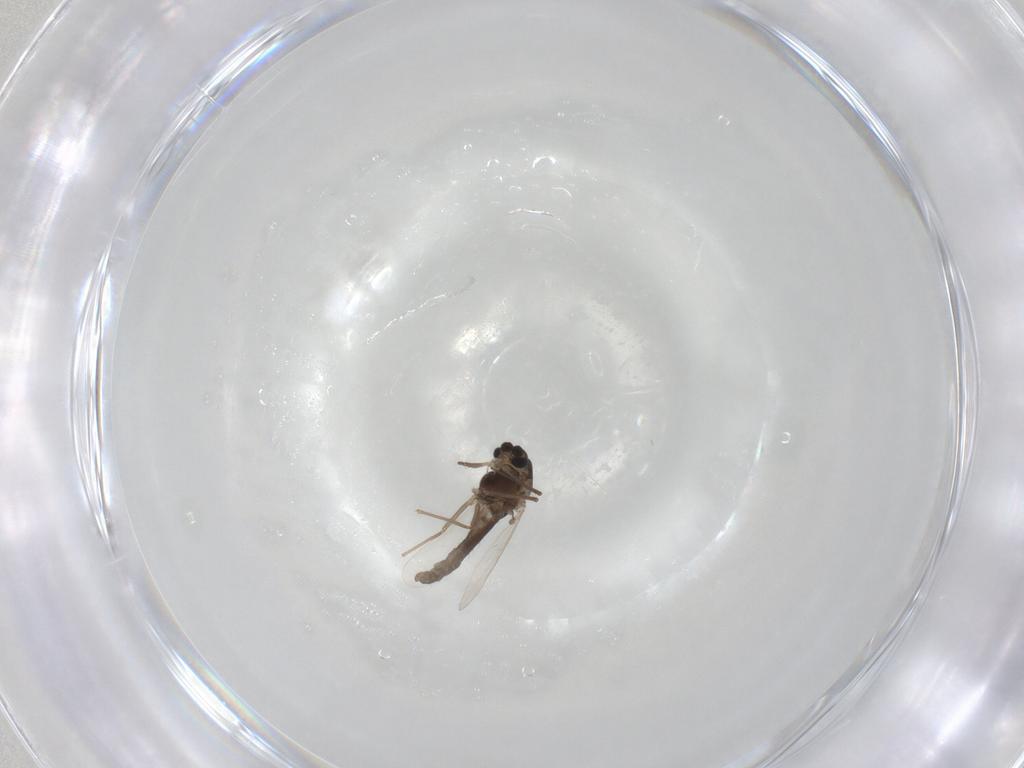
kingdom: Animalia
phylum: Arthropoda
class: Insecta
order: Diptera
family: Chironomidae
